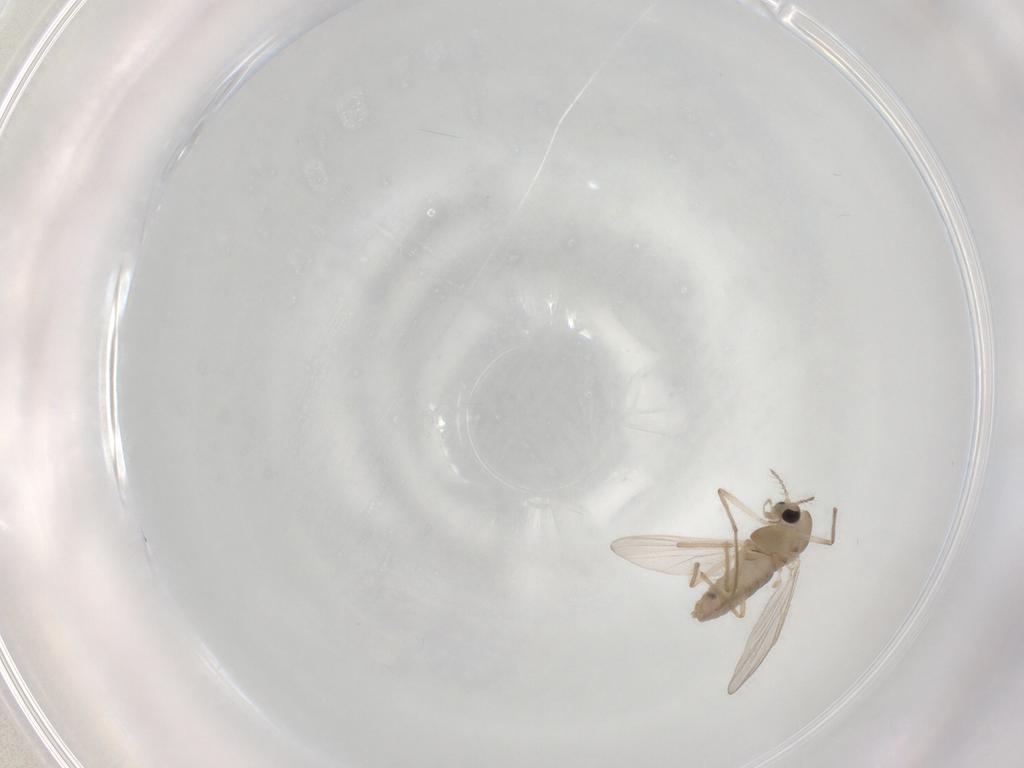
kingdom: Animalia
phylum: Arthropoda
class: Insecta
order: Diptera
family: Chironomidae
